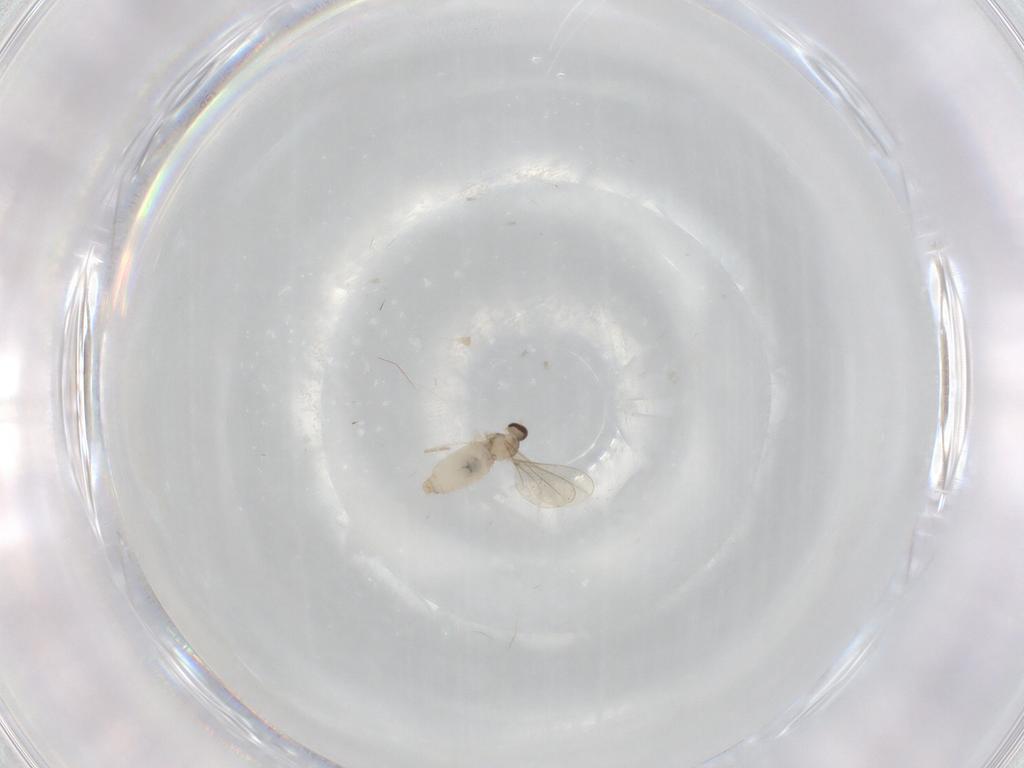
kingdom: Animalia
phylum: Arthropoda
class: Insecta
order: Diptera
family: Cecidomyiidae
